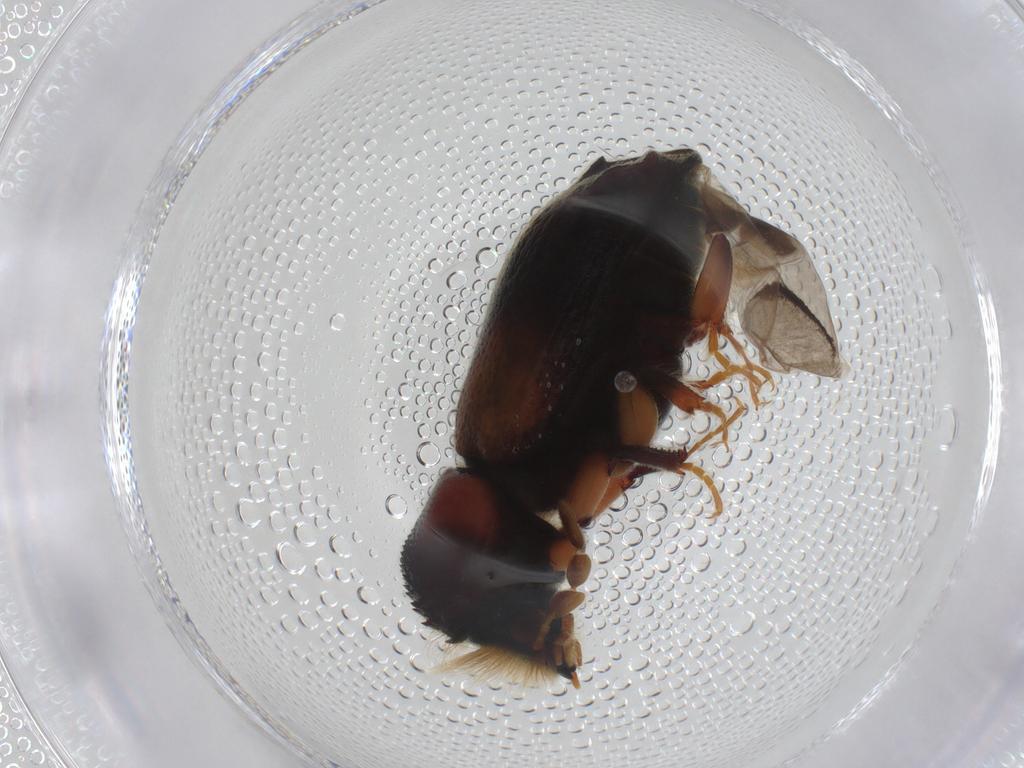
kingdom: Animalia
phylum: Arthropoda
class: Insecta
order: Coleoptera
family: Bostrichidae
